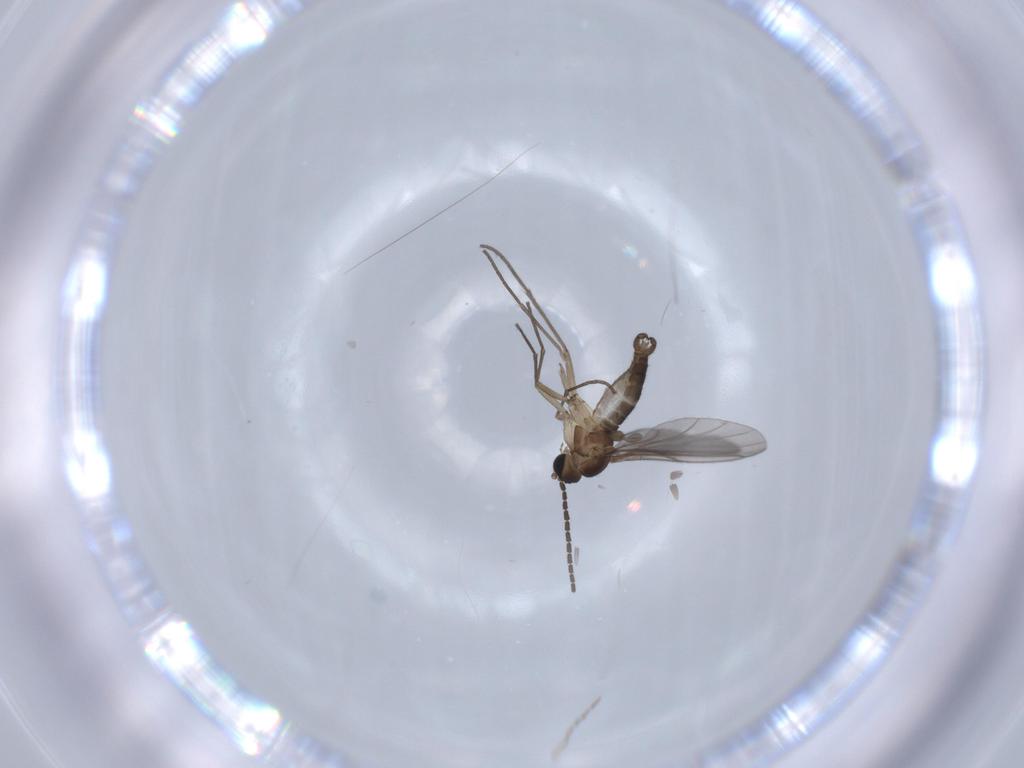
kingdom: Animalia
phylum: Arthropoda
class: Insecta
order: Diptera
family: Sciaridae
